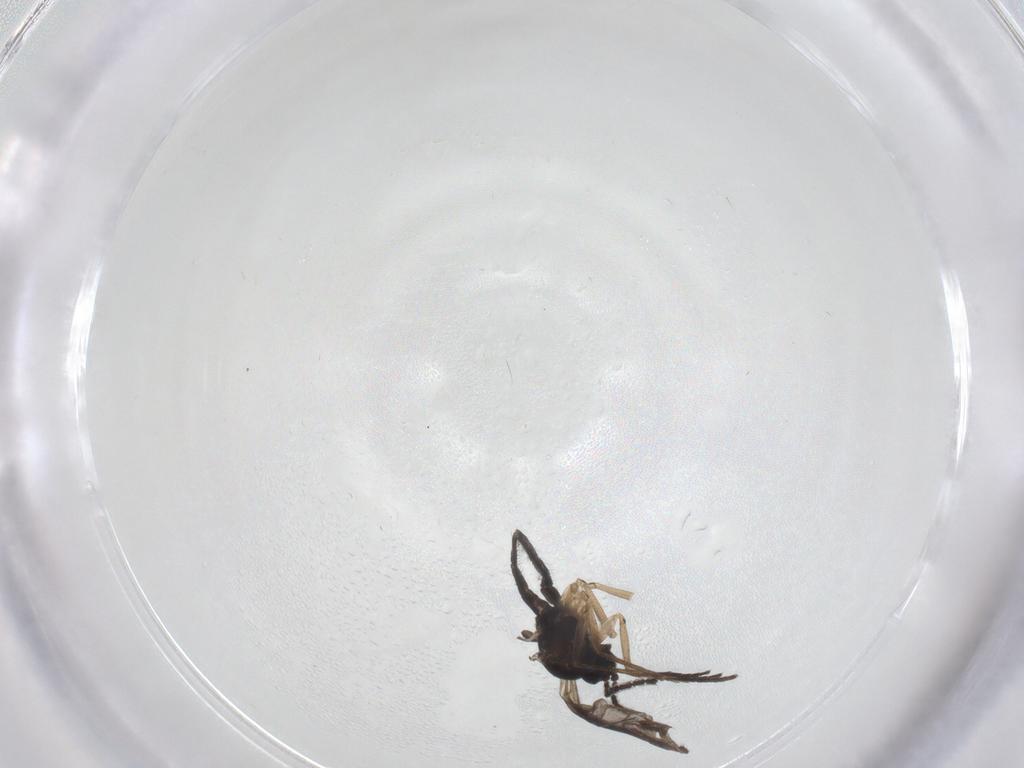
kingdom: Animalia
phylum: Arthropoda
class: Insecta
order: Diptera
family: Sciaridae
